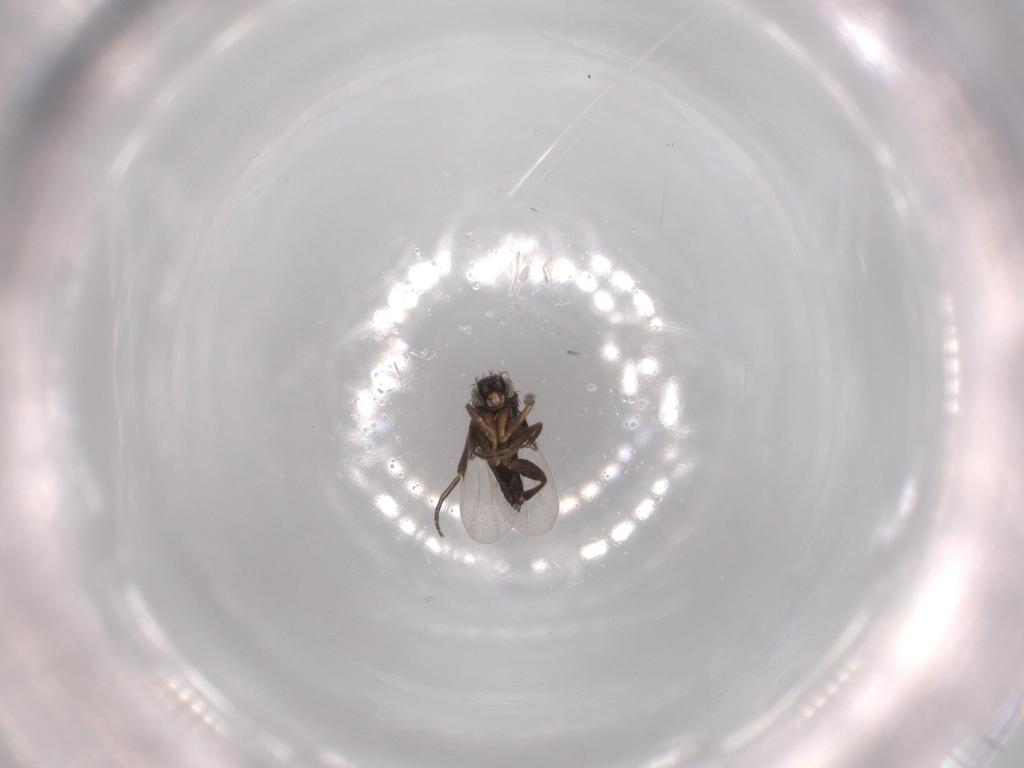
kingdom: Animalia
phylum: Arthropoda
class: Insecta
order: Diptera
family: Phoridae
